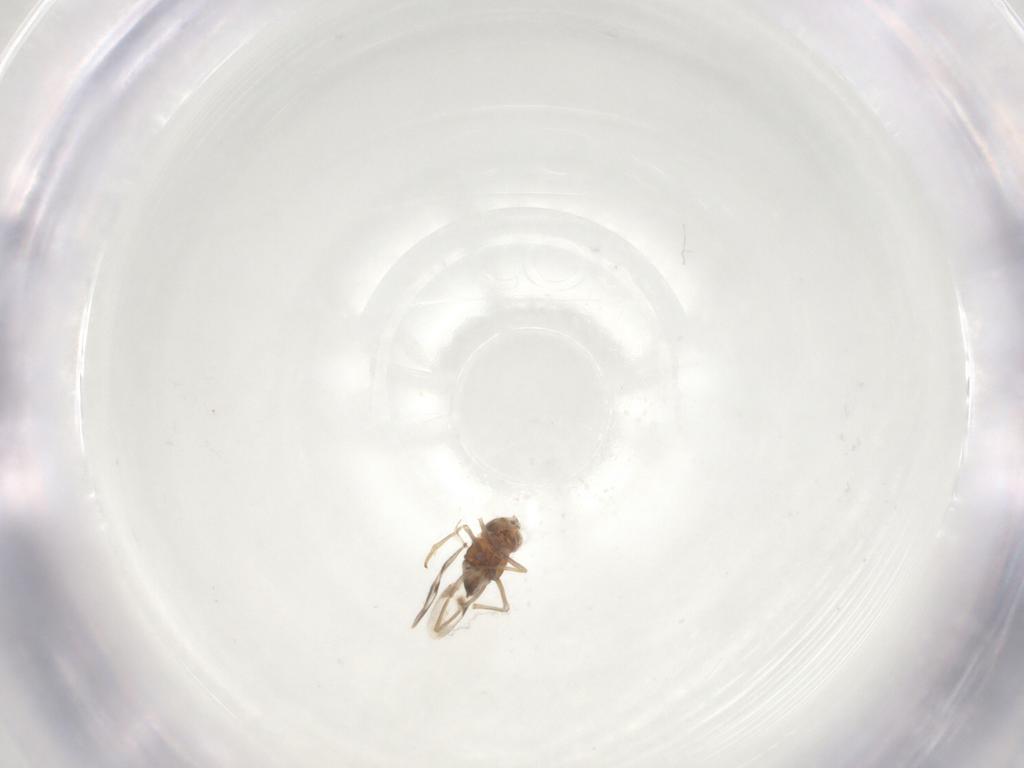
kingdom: Animalia
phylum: Arthropoda
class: Insecta
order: Hymenoptera
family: Encyrtidae
